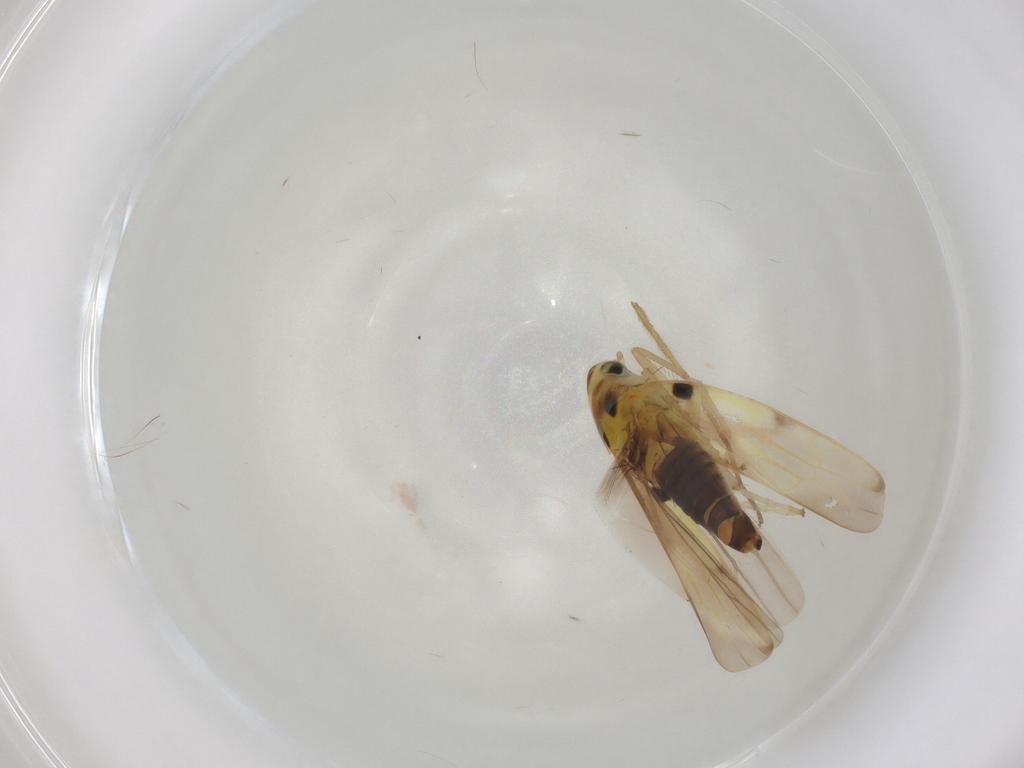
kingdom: Animalia
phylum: Arthropoda
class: Insecta
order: Hemiptera
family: Cicadellidae
